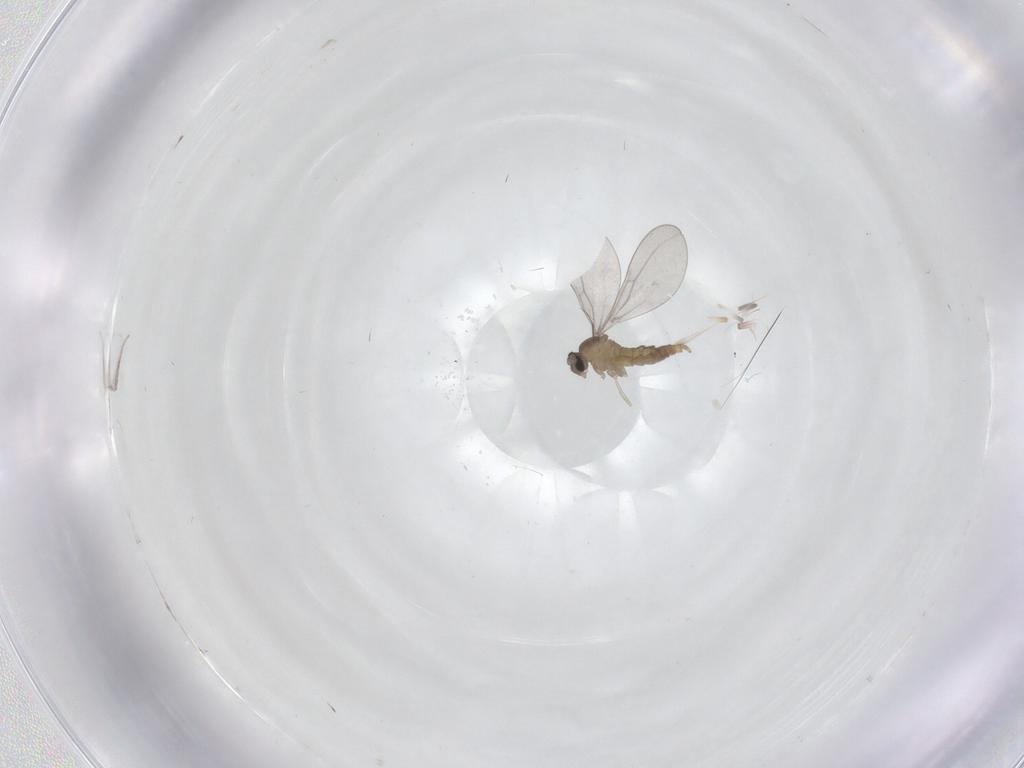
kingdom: Animalia
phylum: Arthropoda
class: Insecta
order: Diptera
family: Cecidomyiidae
